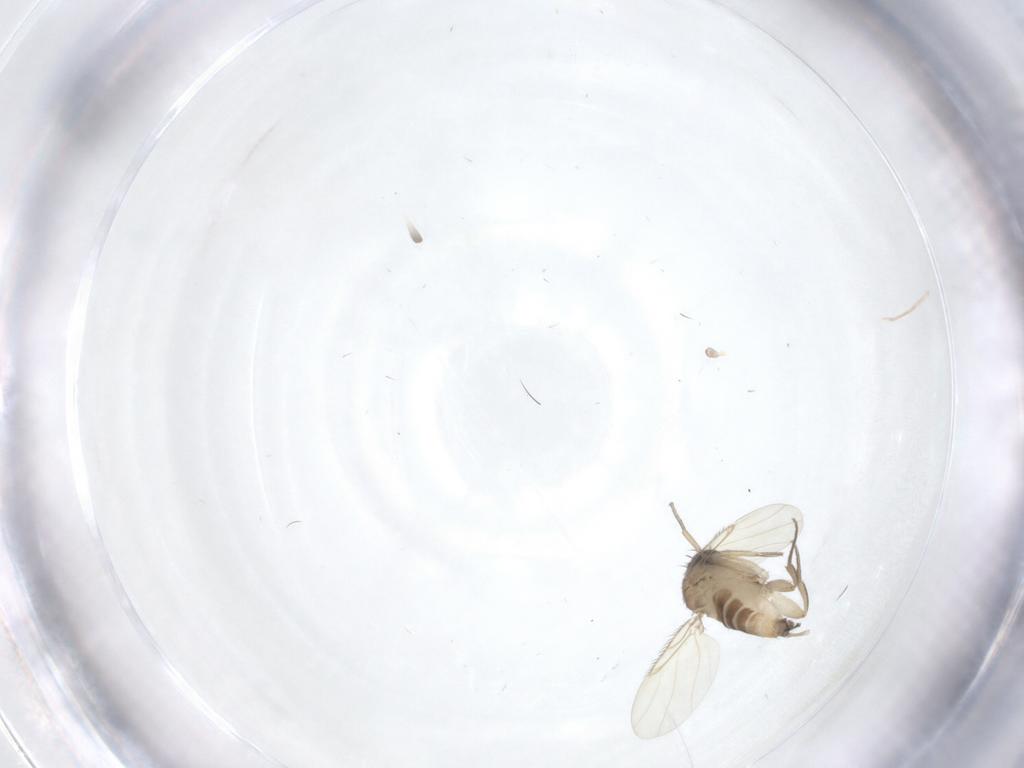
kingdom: Animalia
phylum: Arthropoda
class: Insecta
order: Diptera
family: Phoridae
